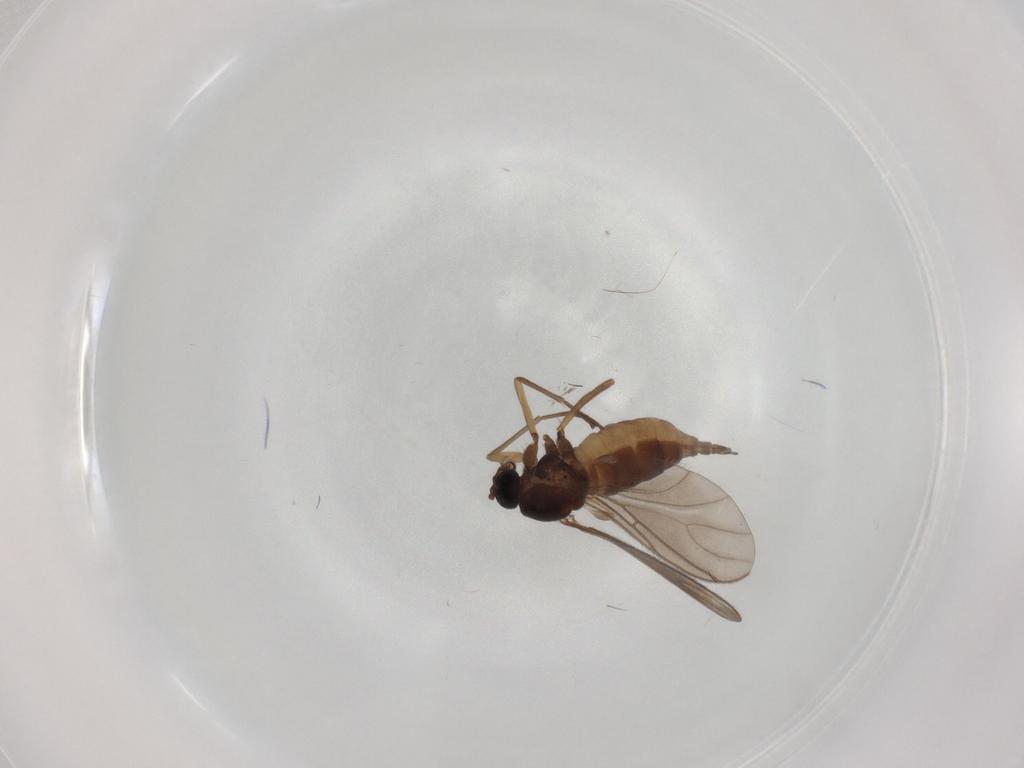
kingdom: Animalia
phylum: Arthropoda
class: Insecta
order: Diptera
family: Sciaridae
